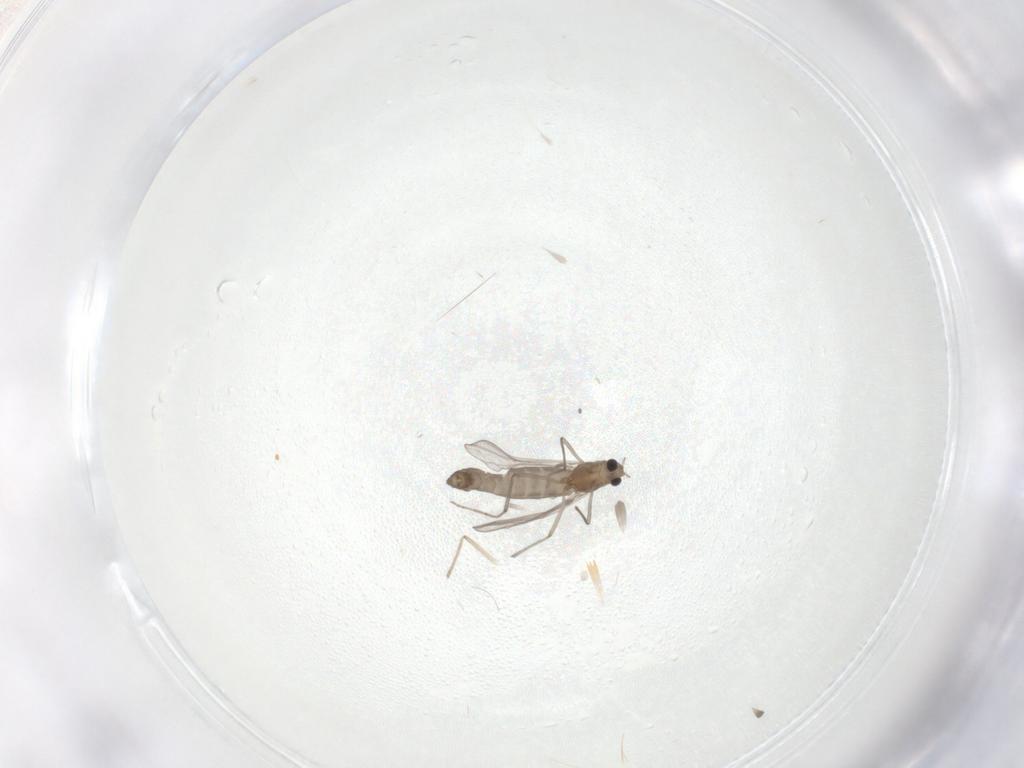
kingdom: Animalia
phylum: Arthropoda
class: Insecta
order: Diptera
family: Chironomidae
